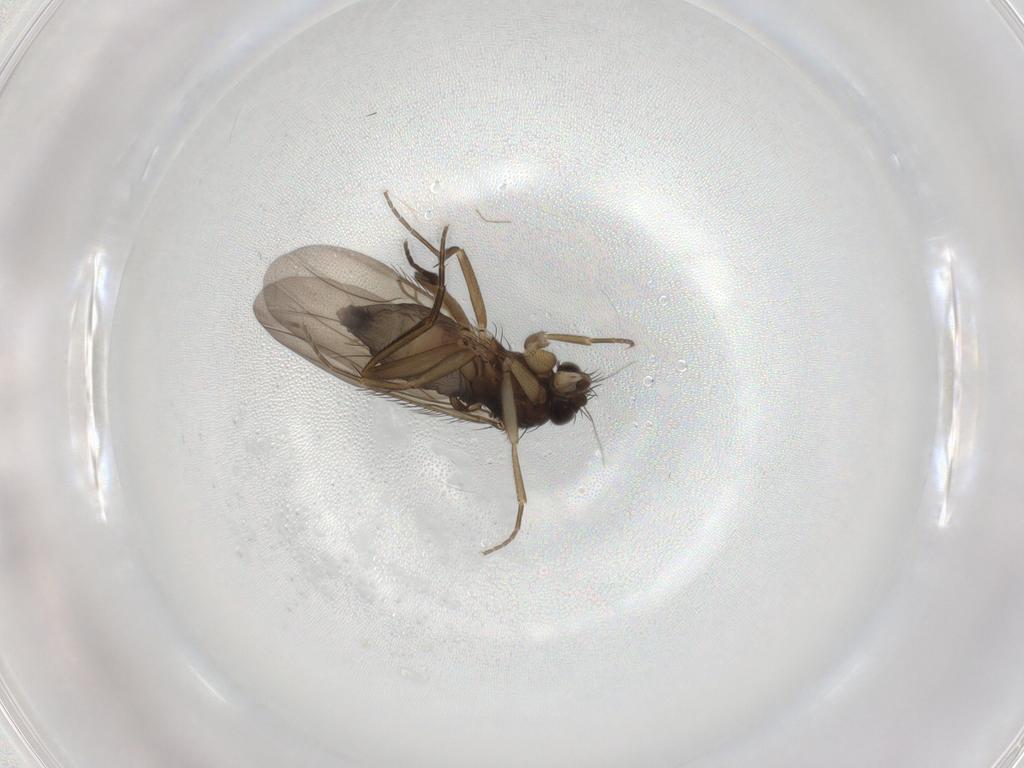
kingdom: Animalia
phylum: Arthropoda
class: Insecta
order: Diptera
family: Phoridae
